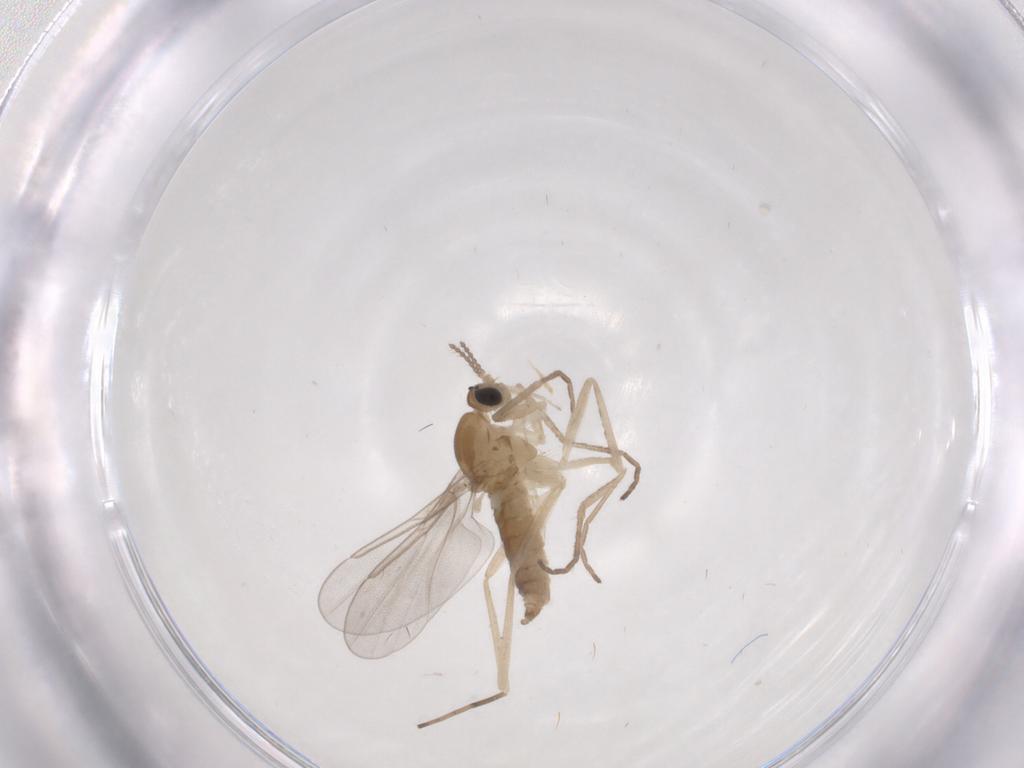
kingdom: Animalia
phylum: Arthropoda
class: Insecta
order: Diptera
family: Cecidomyiidae
